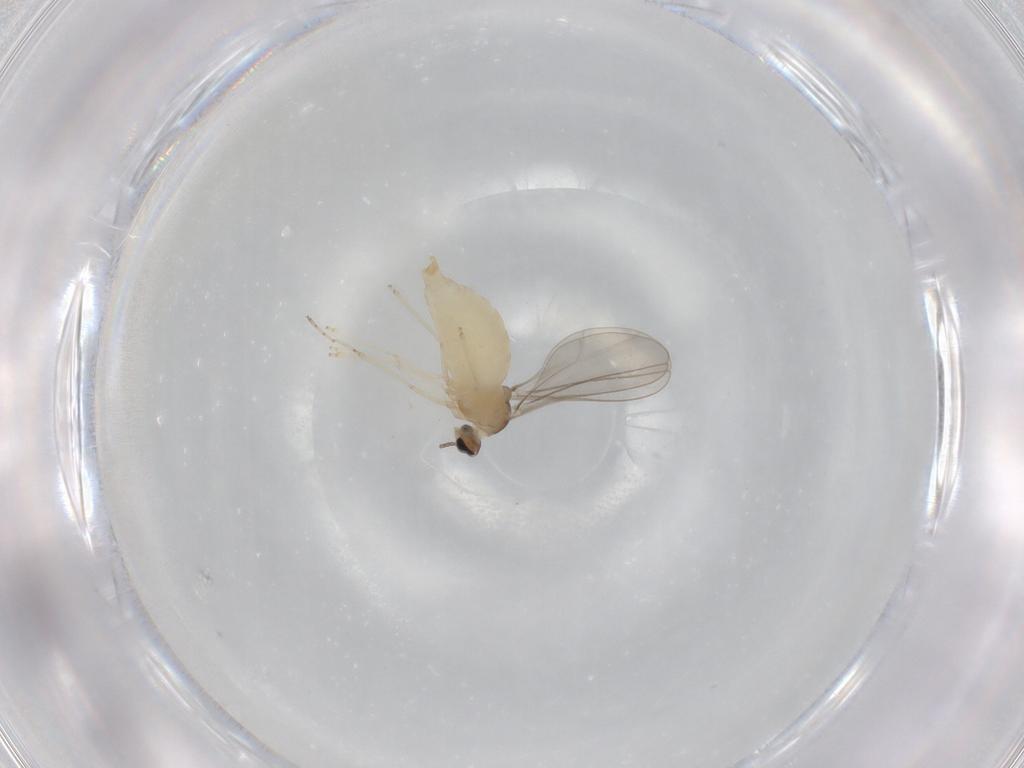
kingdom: Animalia
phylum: Arthropoda
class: Insecta
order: Diptera
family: Cecidomyiidae
